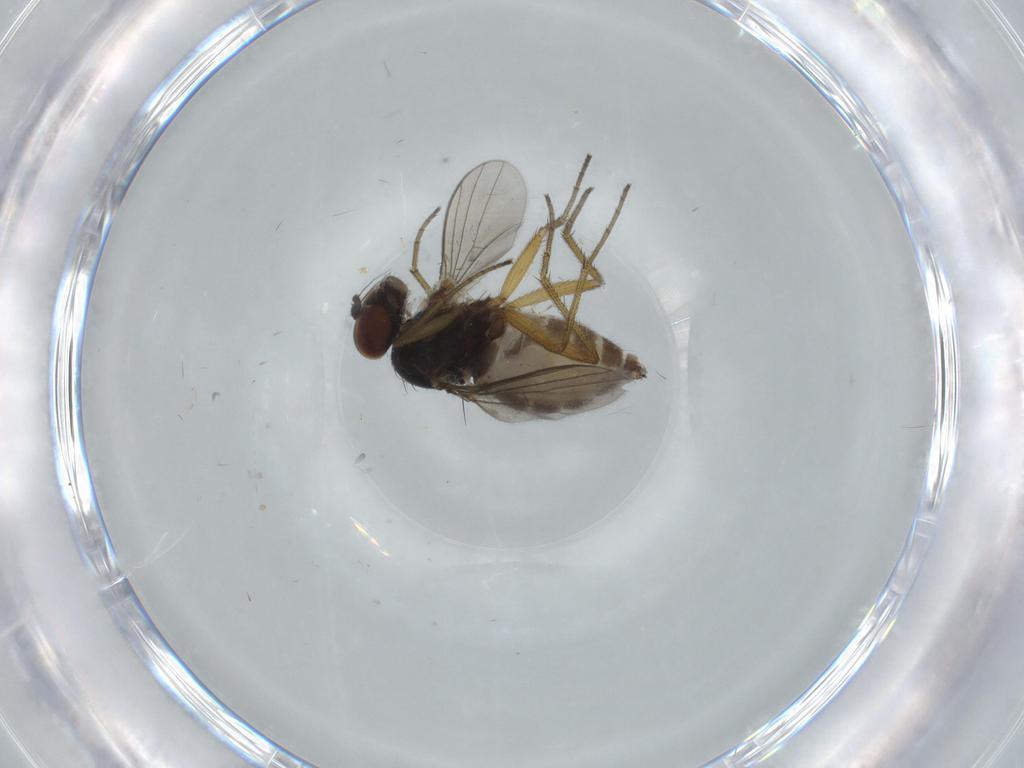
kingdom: Animalia
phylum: Arthropoda
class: Insecta
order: Diptera
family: Dolichopodidae
